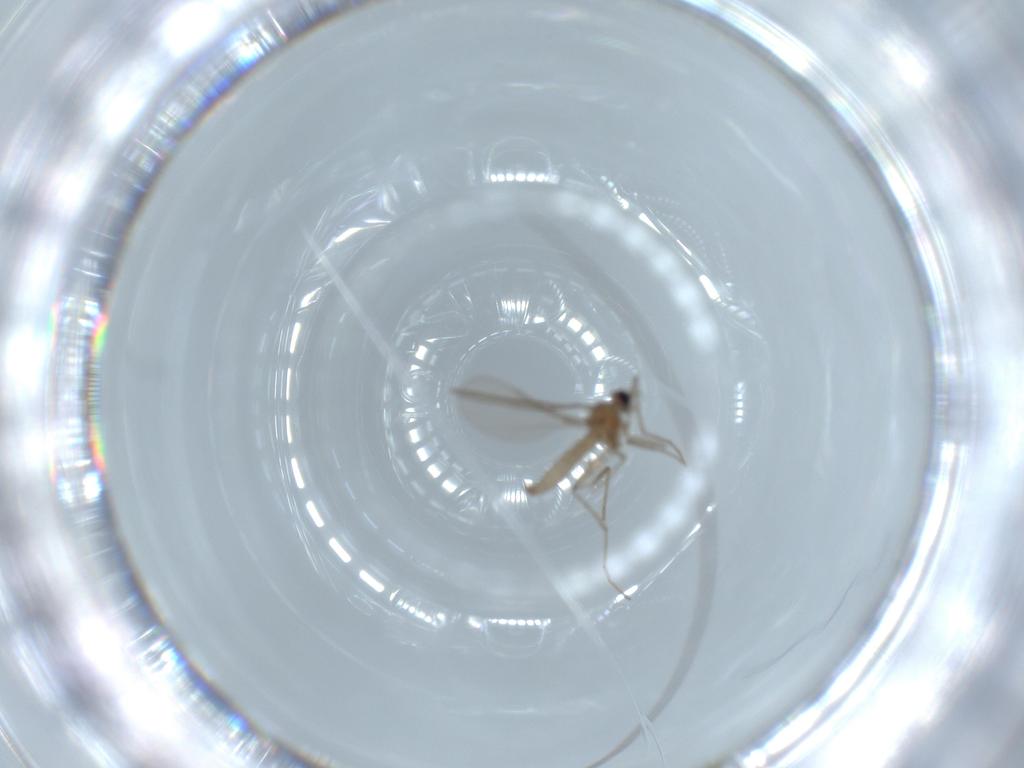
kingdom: Animalia
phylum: Arthropoda
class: Insecta
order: Diptera
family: Cecidomyiidae
